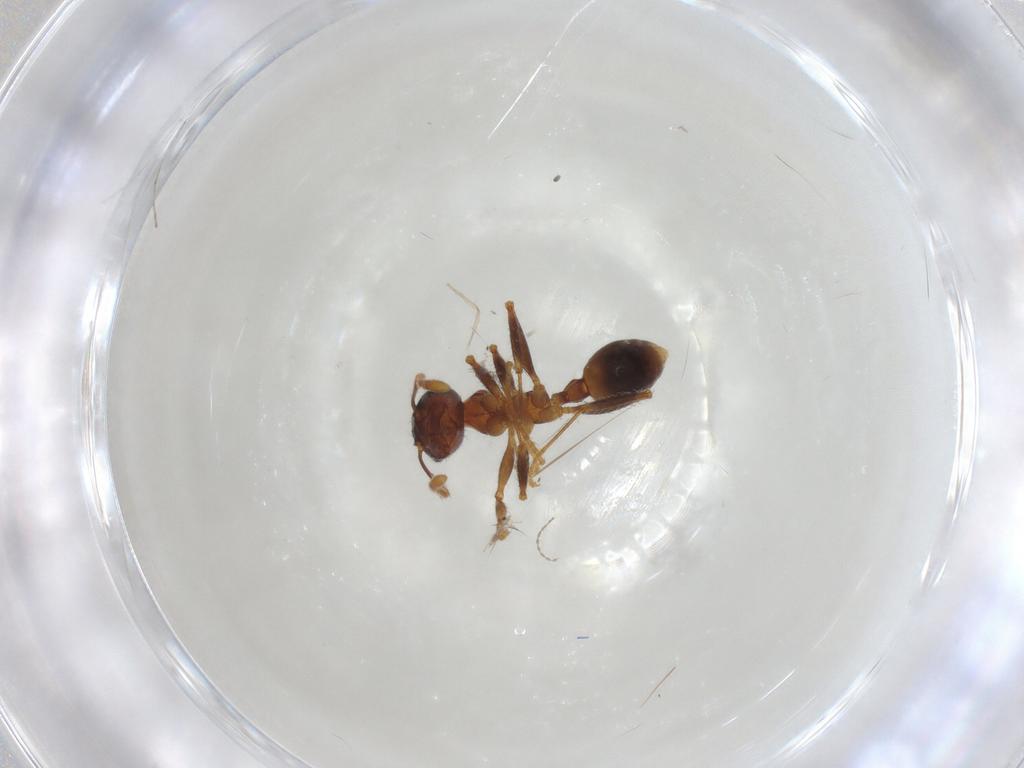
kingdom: Animalia
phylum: Arthropoda
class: Insecta
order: Hymenoptera
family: Formicidae
